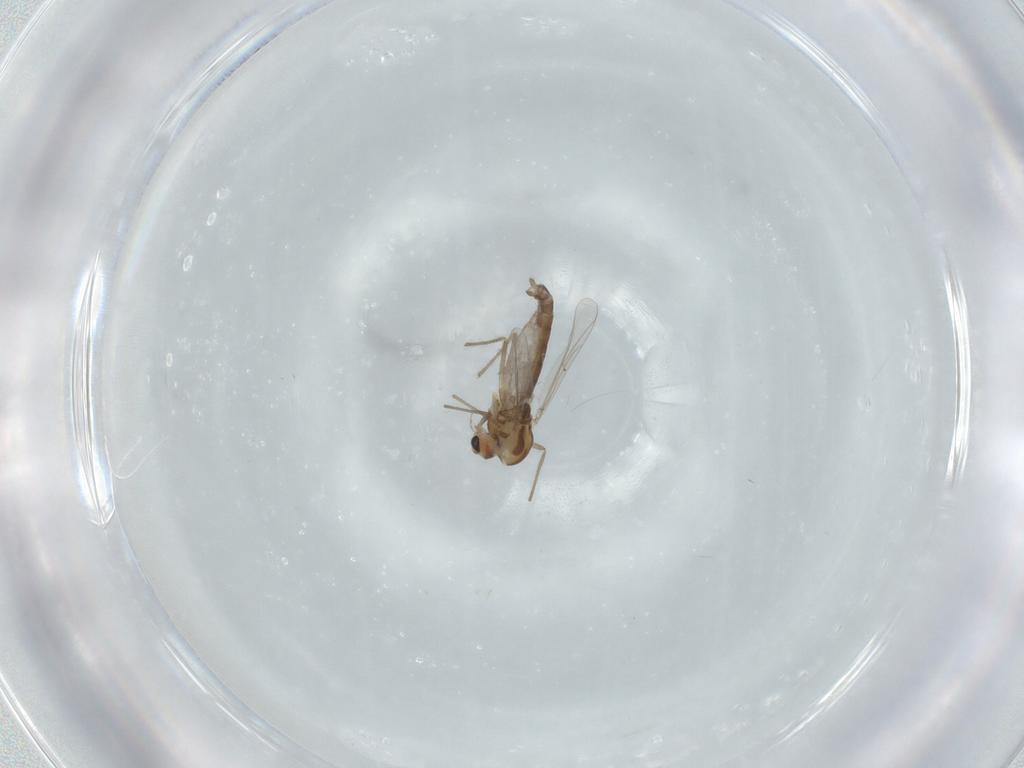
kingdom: Animalia
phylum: Arthropoda
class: Insecta
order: Diptera
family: Chironomidae
